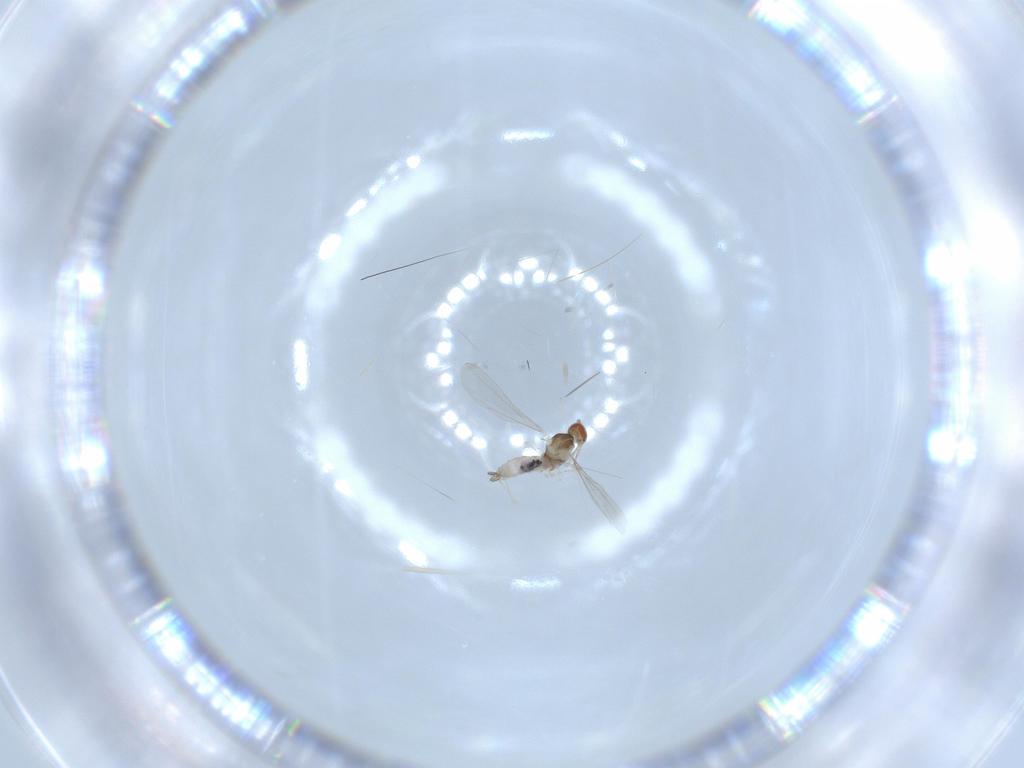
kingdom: Animalia
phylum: Arthropoda
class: Insecta
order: Diptera
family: Cecidomyiidae
